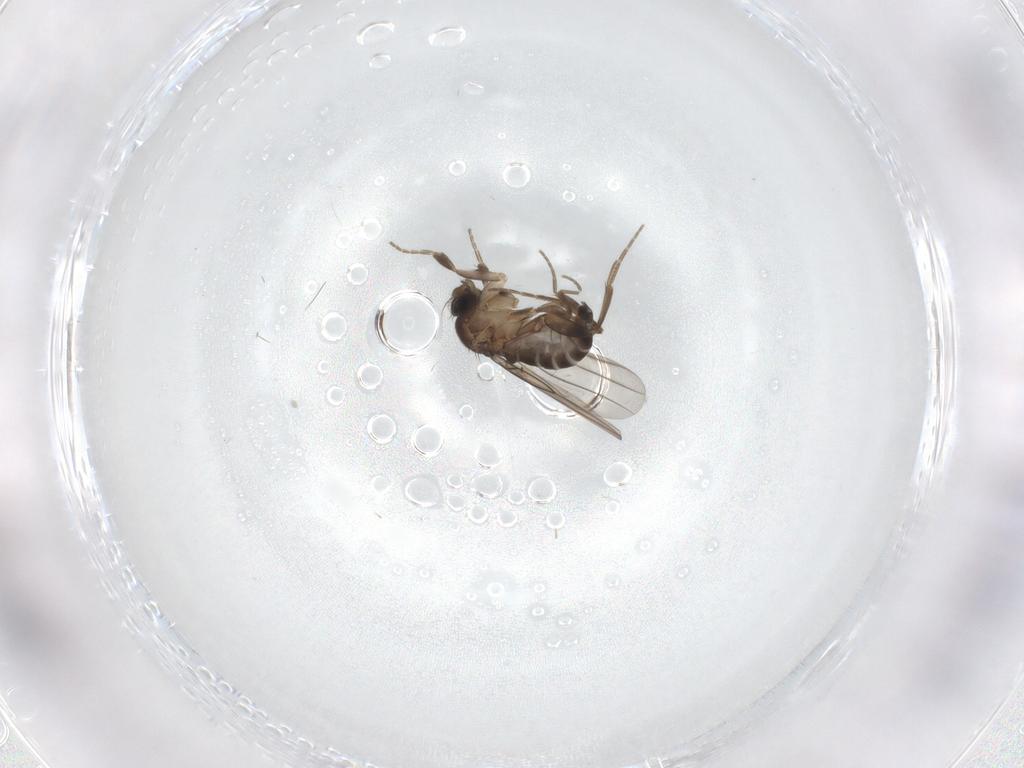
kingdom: Animalia
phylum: Arthropoda
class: Insecta
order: Diptera
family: Phoridae
